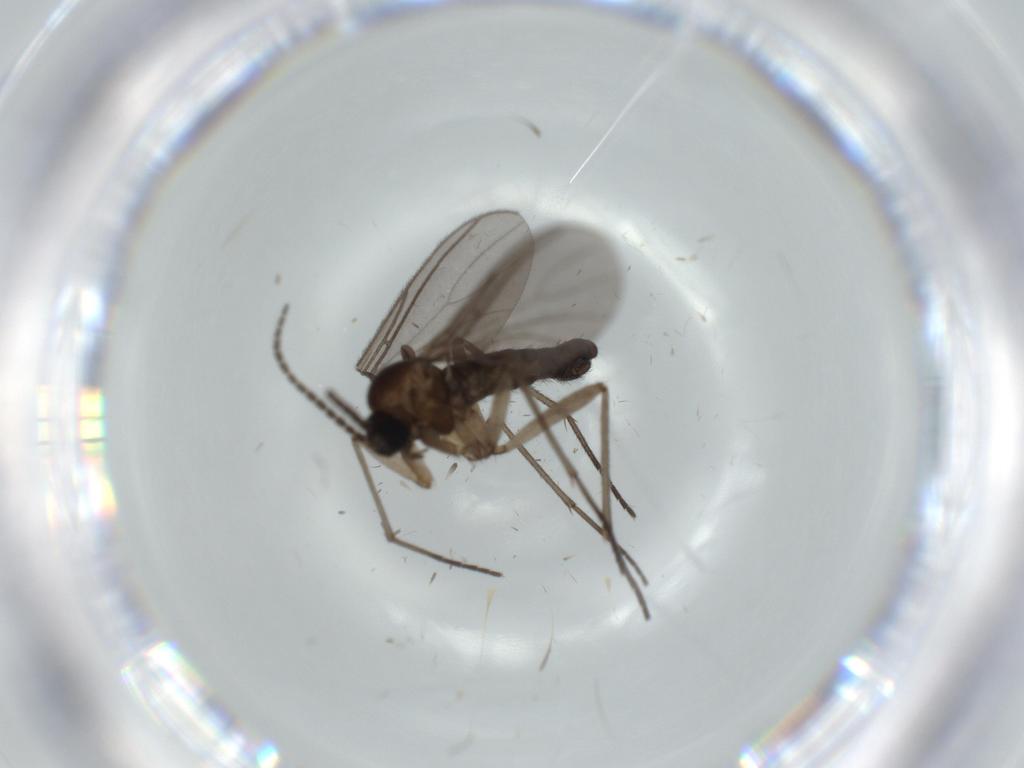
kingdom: Animalia
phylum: Arthropoda
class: Insecta
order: Diptera
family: Sciaridae
